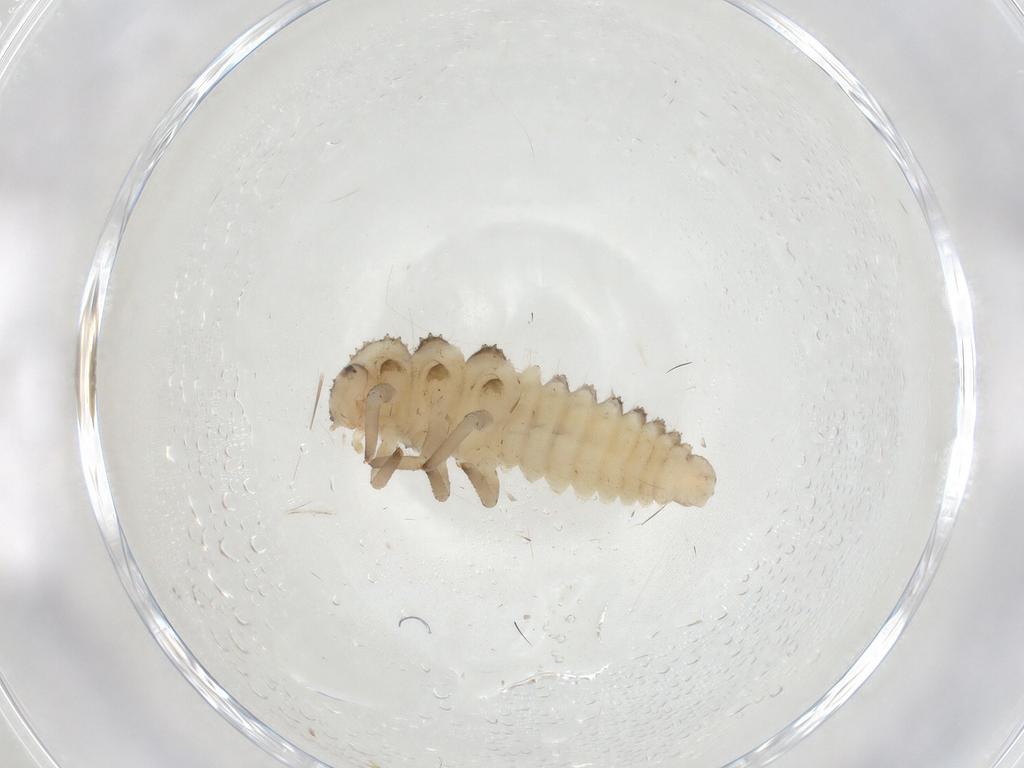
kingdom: Animalia
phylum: Arthropoda
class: Insecta
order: Coleoptera
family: Coccinellidae
